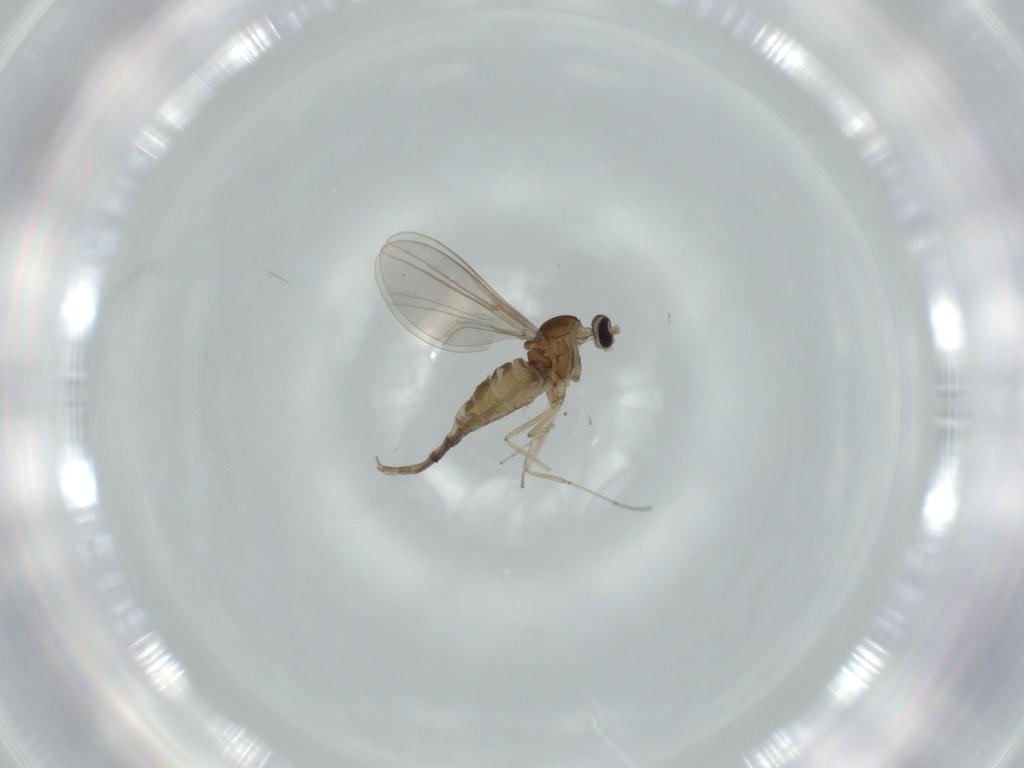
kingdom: Animalia
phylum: Arthropoda
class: Insecta
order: Diptera
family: Cecidomyiidae
